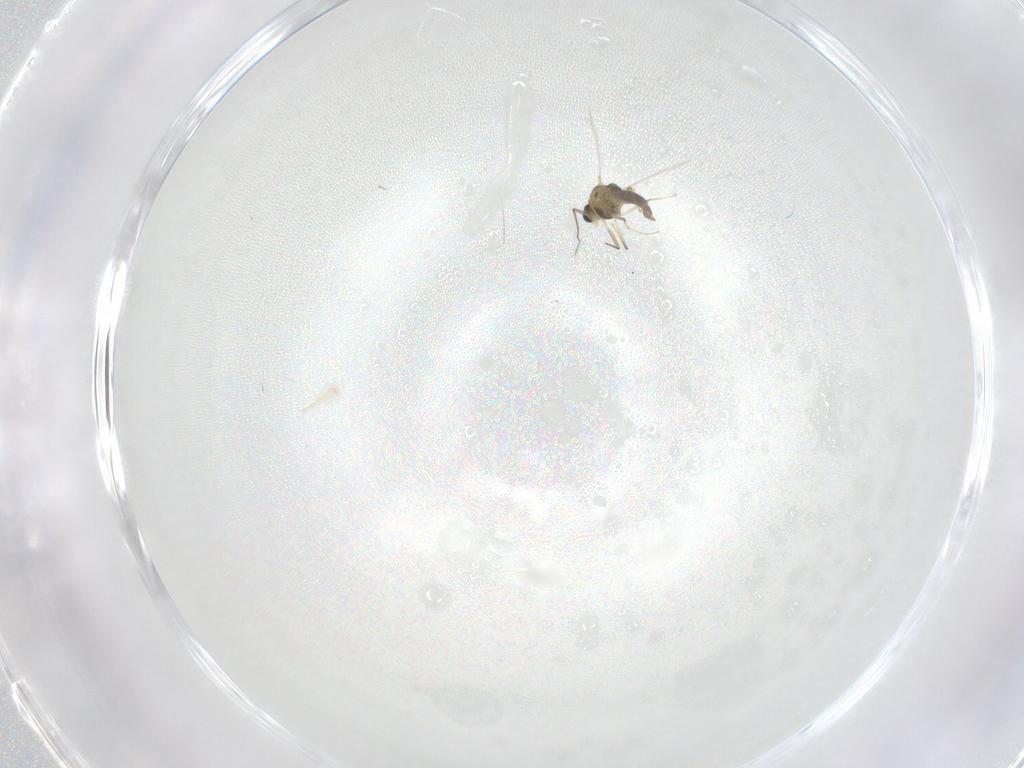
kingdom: Animalia
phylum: Arthropoda
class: Insecta
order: Diptera
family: Chironomidae
